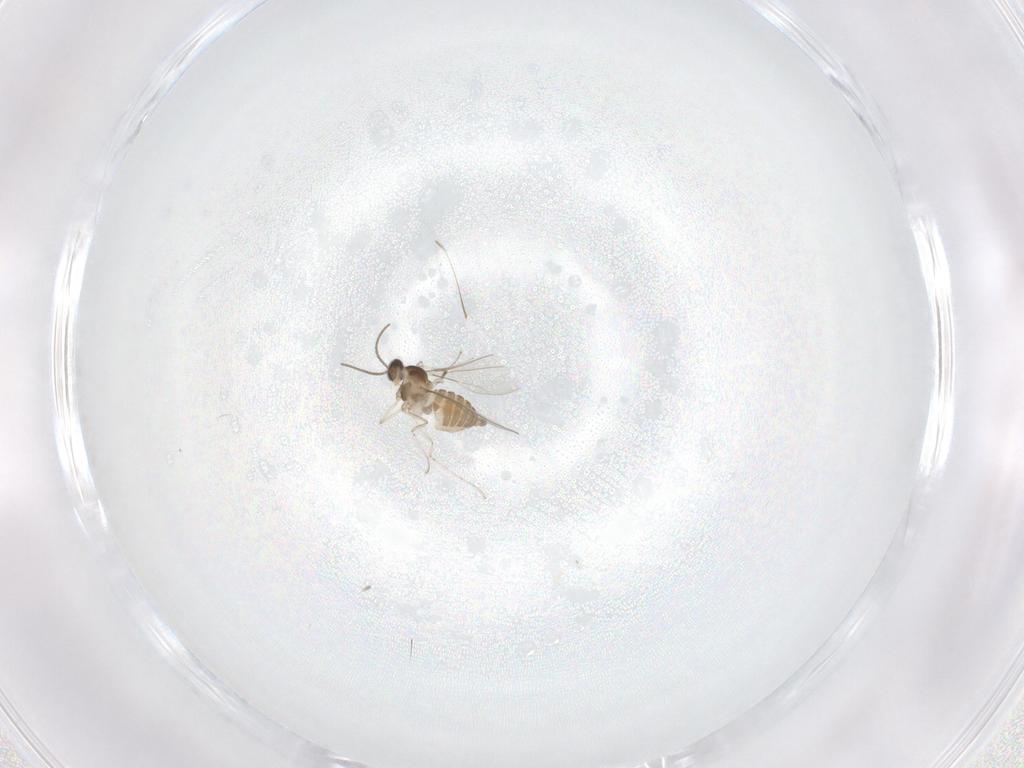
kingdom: Animalia
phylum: Arthropoda
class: Insecta
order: Diptera
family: Cecidomyiidae
